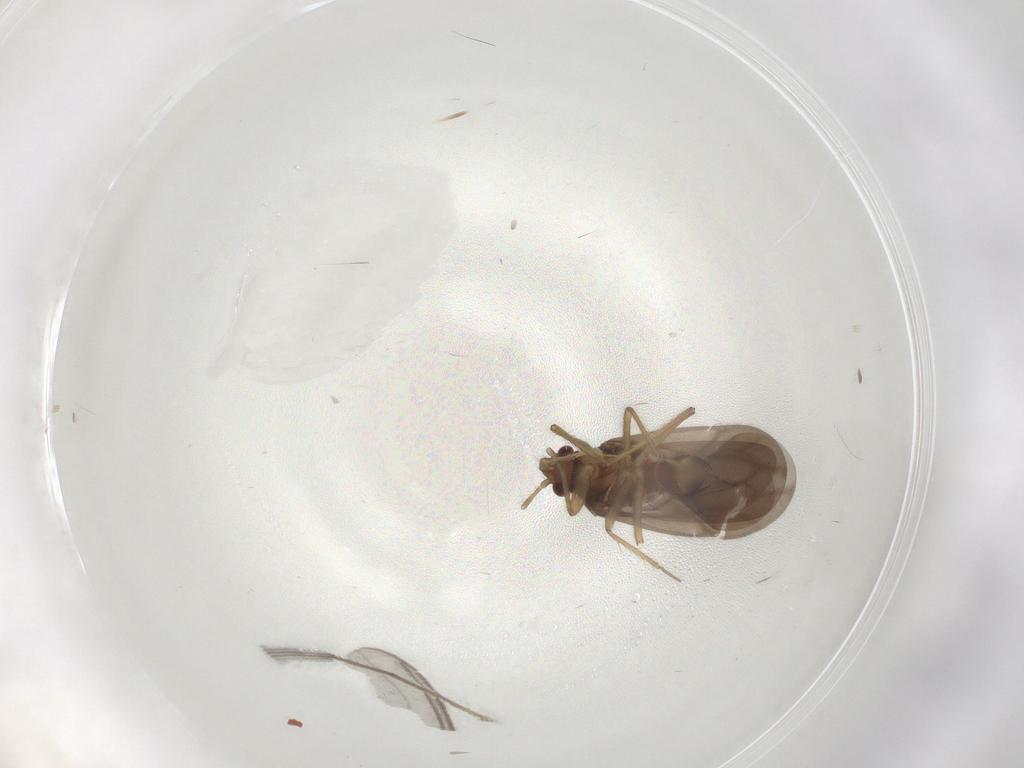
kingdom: Animalia
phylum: Arthropoda
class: Insecta
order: Hemiptera
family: Ceratocombidae
